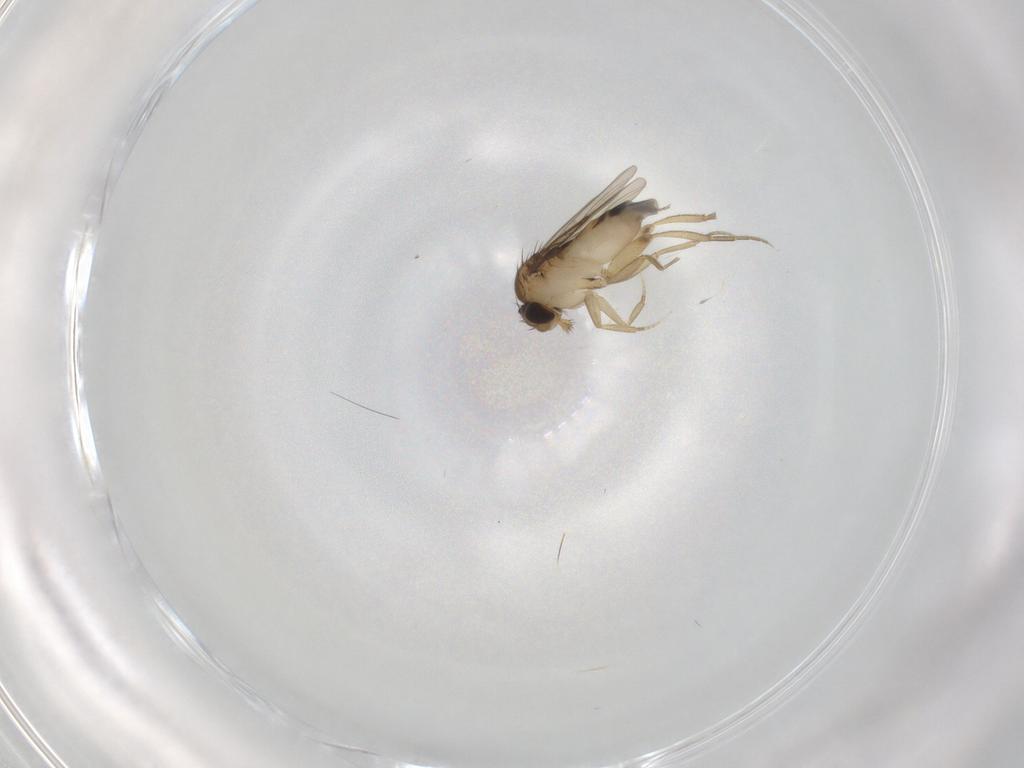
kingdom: Animalia
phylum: Arthropoda
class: Insecta
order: Diptera
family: Phoridae
